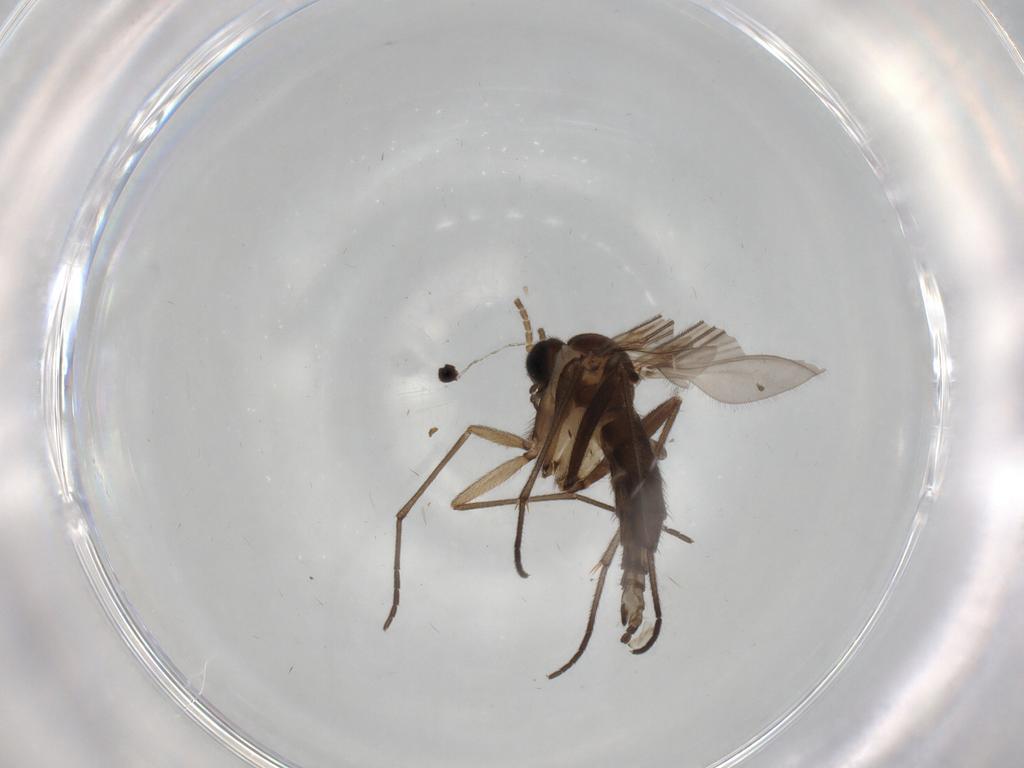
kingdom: Animalia
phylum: Arthropoda
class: Insecta
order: Diptera
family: Sciaridae
